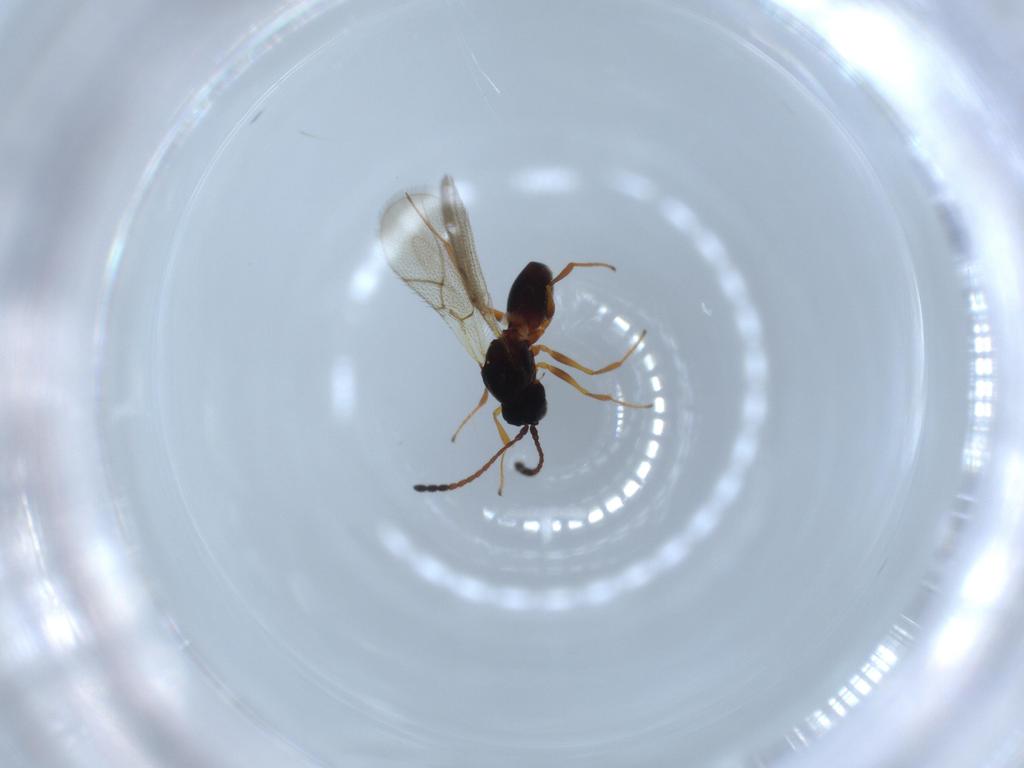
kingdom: Animalia
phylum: Arthropoda
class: Insecta
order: Hymenoptera
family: Figitidae
